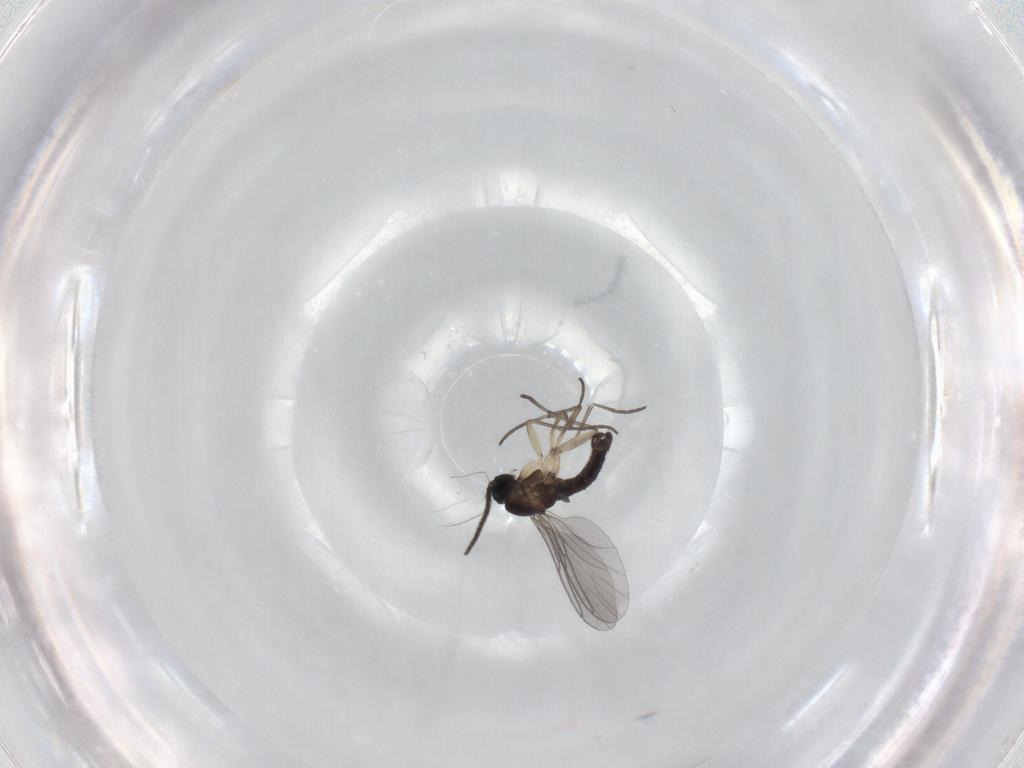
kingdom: Animalia
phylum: Arthropoda
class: Insecta
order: Diptera
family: Sciaridae
